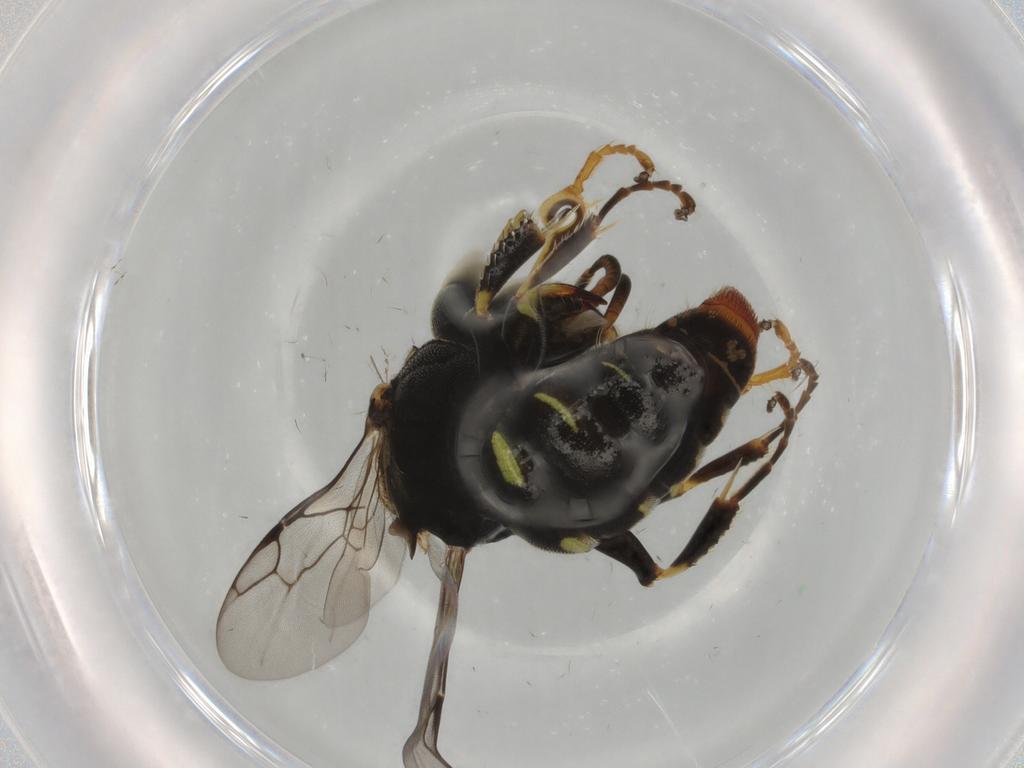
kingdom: Animalia
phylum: Arthropoda
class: Insecta
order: Hymenoptera
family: Crabronidae
